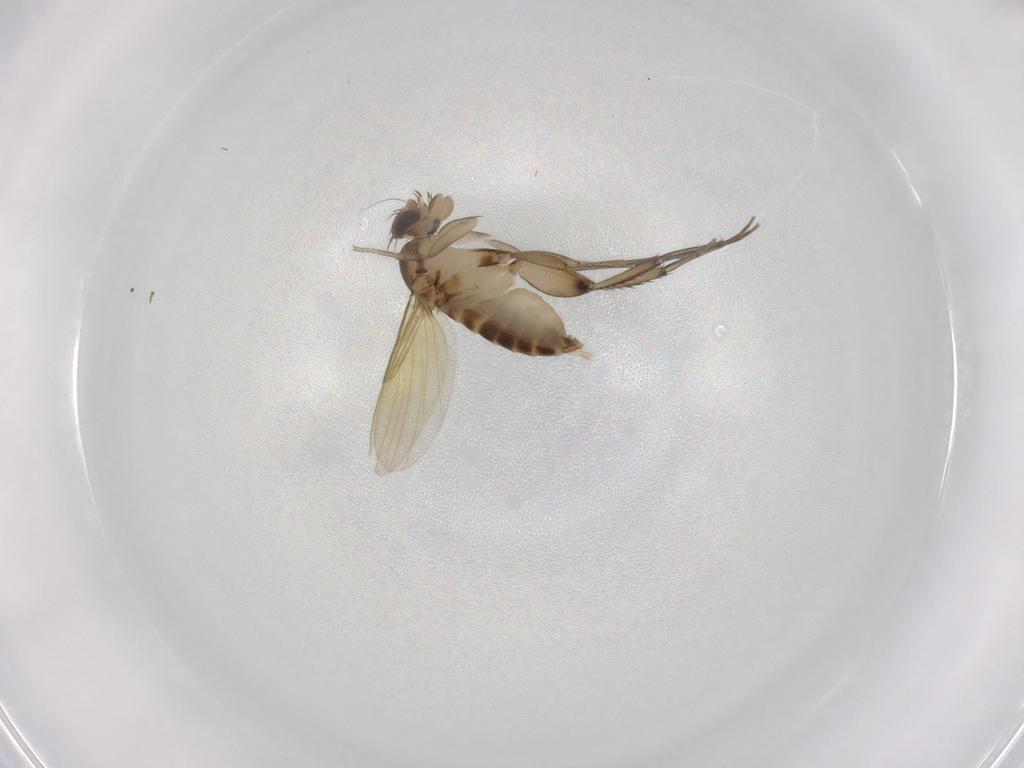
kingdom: Animalia
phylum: Arthropoda
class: Insecta
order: Diptera
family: Phoridae
